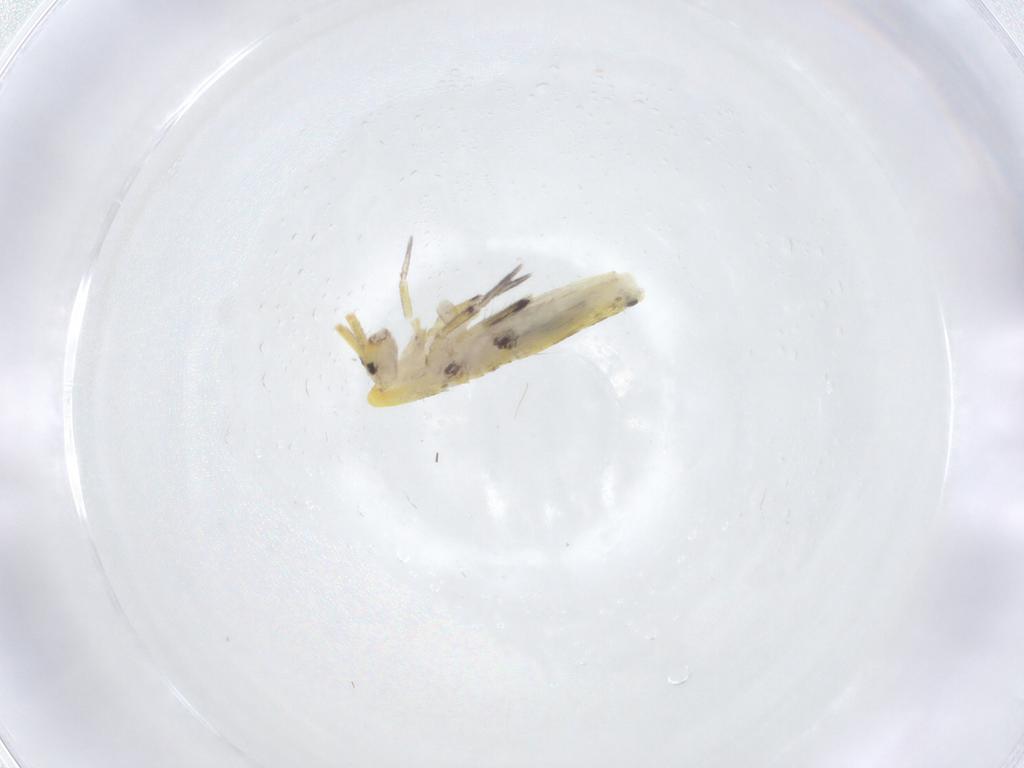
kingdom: Animalia
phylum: Arthropoda
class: Collembola
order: Entomobryomorpha
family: Entomobryidae
